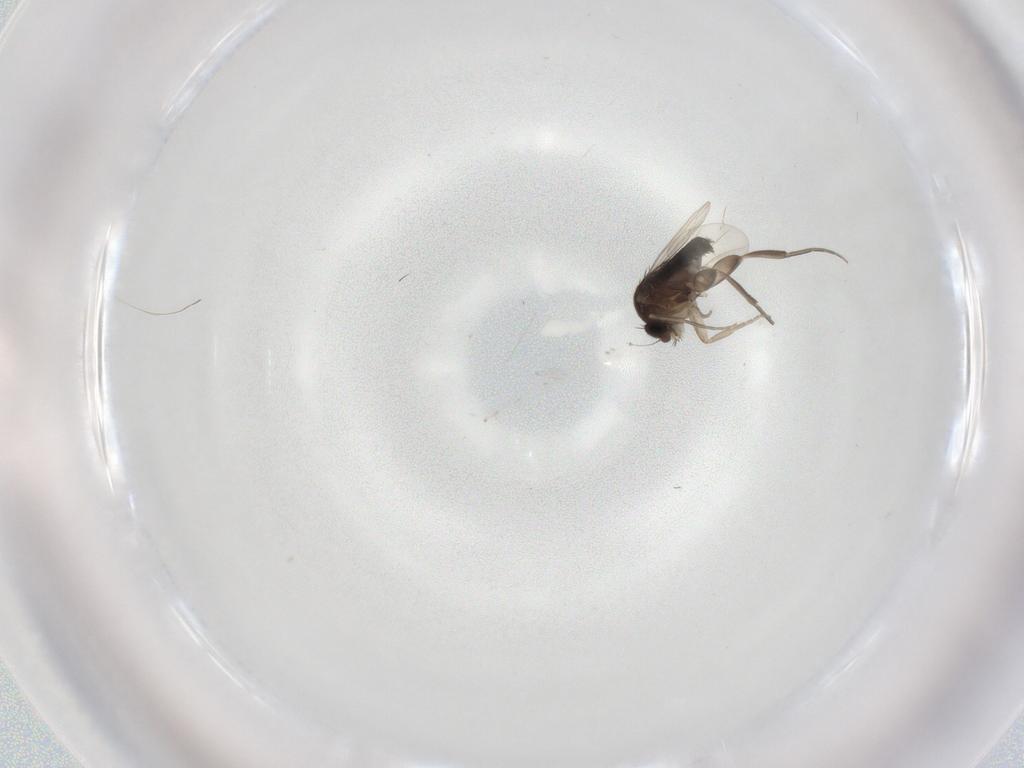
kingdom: Animalia
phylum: Arthropoda
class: Insecta
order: Diptera
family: Phoridae
